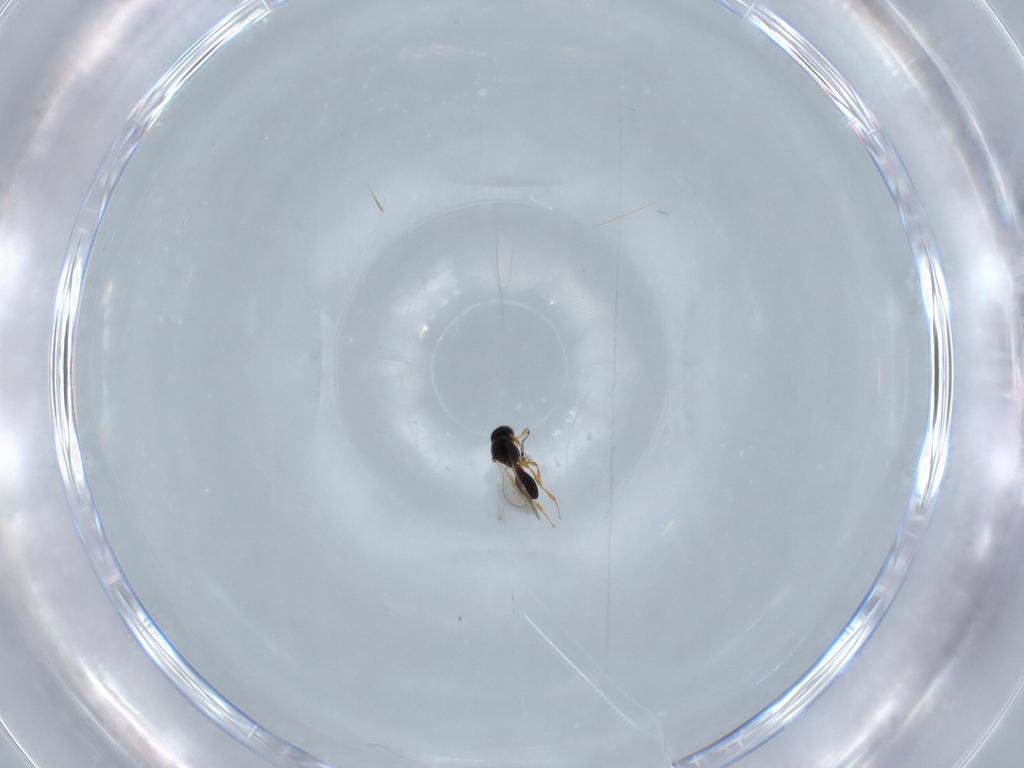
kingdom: Animalia
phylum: Arthropoda
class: Insecta
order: Hymenoptera
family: Platygastridae
